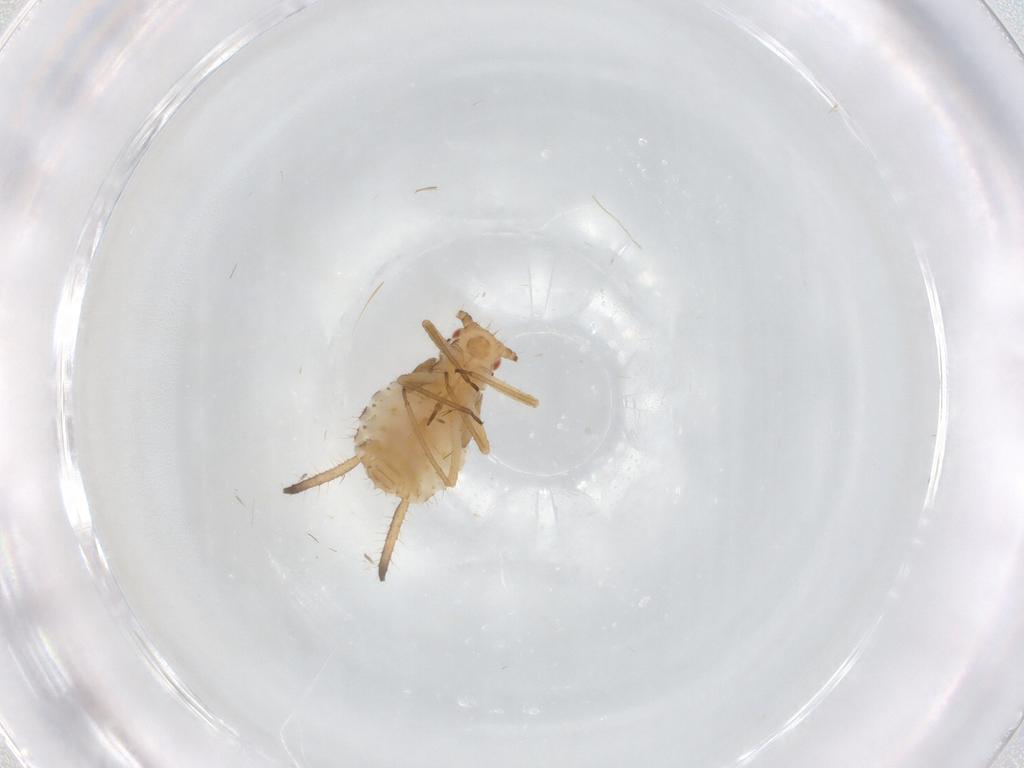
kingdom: Animalia
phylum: Arthropoda
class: Insecta
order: Hemiptera
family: Aphididae
